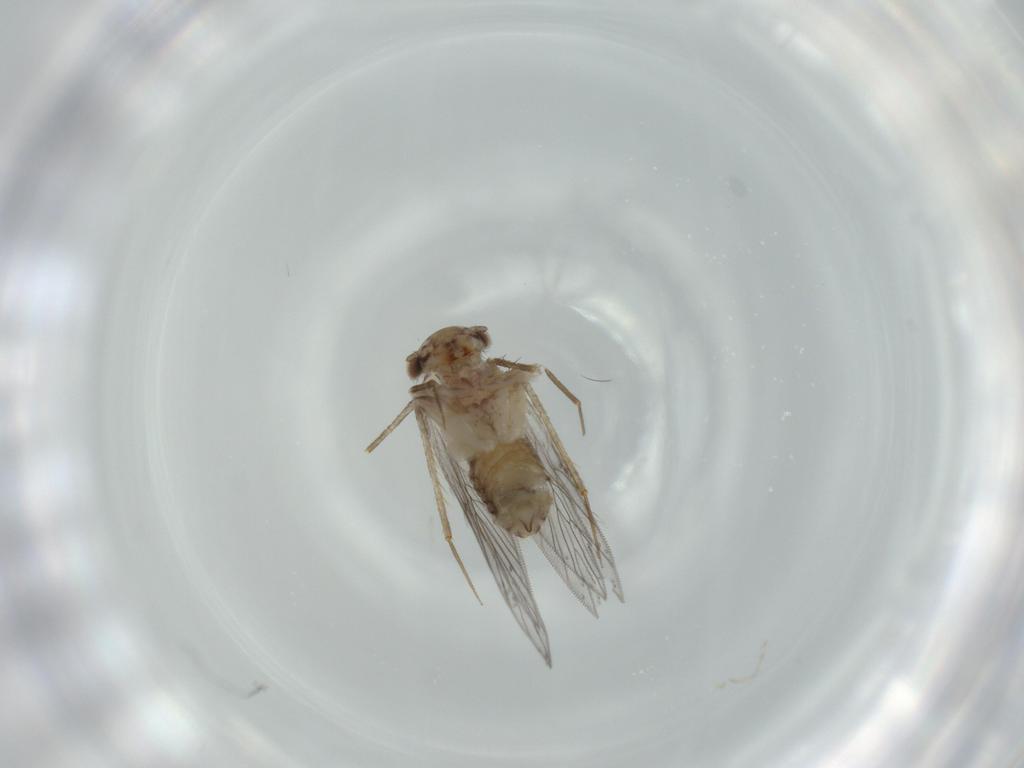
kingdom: Animalia
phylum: Arthropoda
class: Insecta
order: Psocodea
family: Lepidopsocidae
